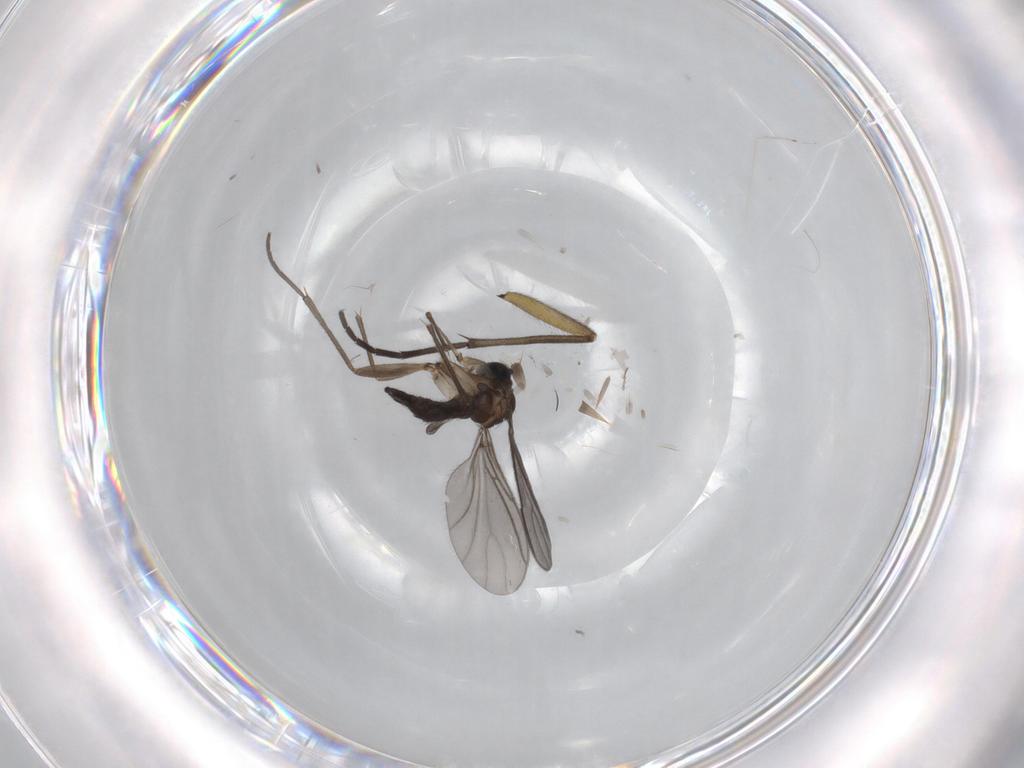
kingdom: Animalia
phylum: Arthropoda
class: Insecta
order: Diptera
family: Sciaridae
